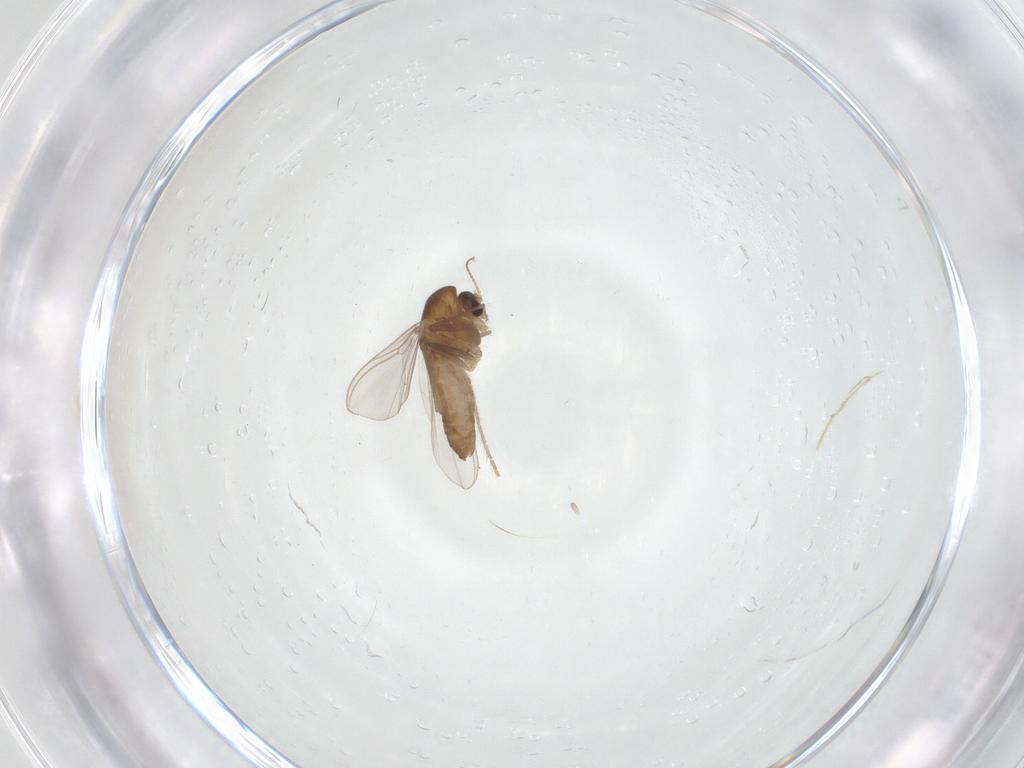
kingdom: Animalia
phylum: Arthropoda
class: Insecta
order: Diptera
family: Chironomidae
